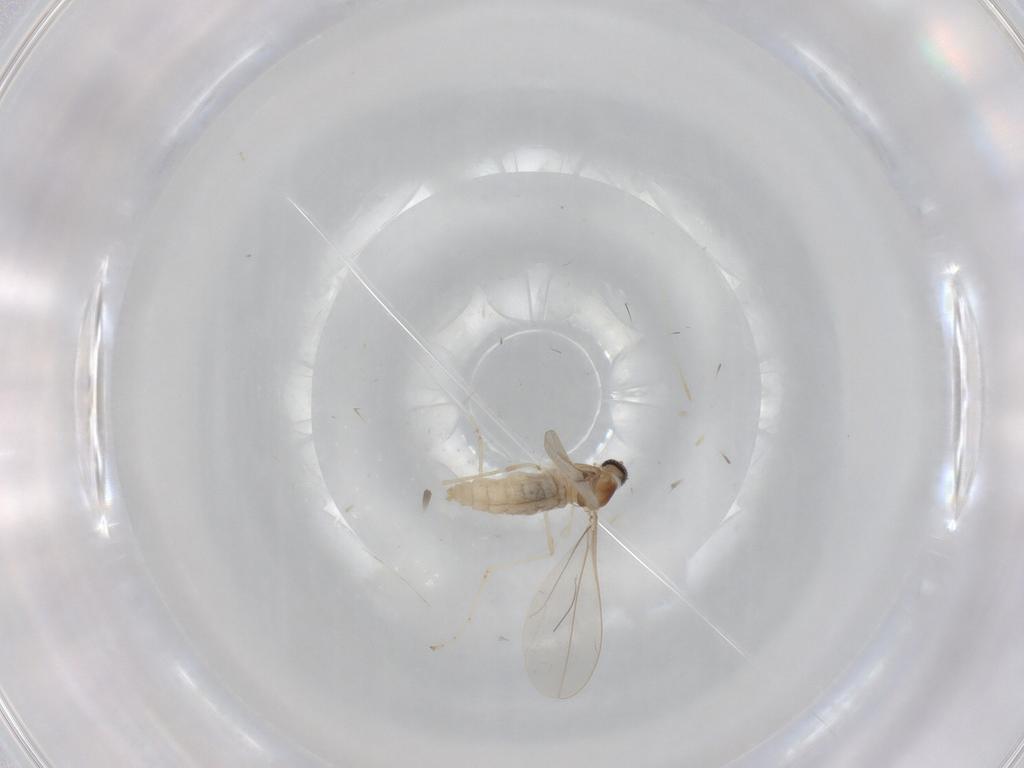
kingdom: Animalia
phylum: Arthropoda
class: Insecta
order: Diptera
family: Cecidomyiidae
